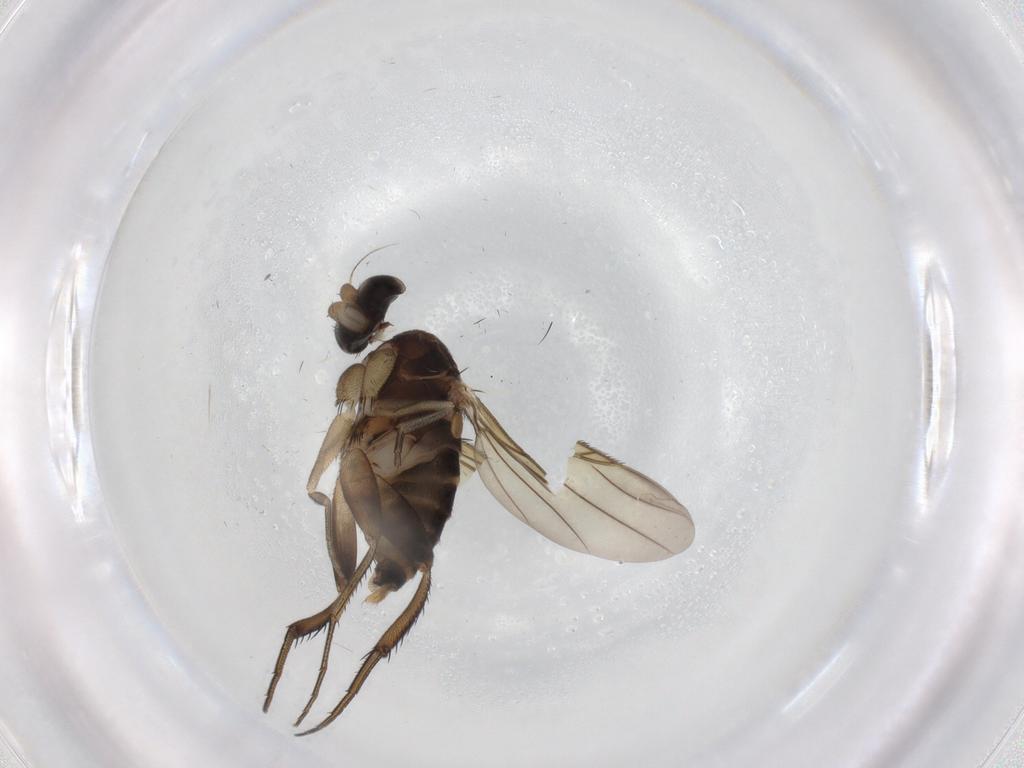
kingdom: Animalia
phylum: Arthropoda
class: Insecta
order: Diptera
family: Phoridae
